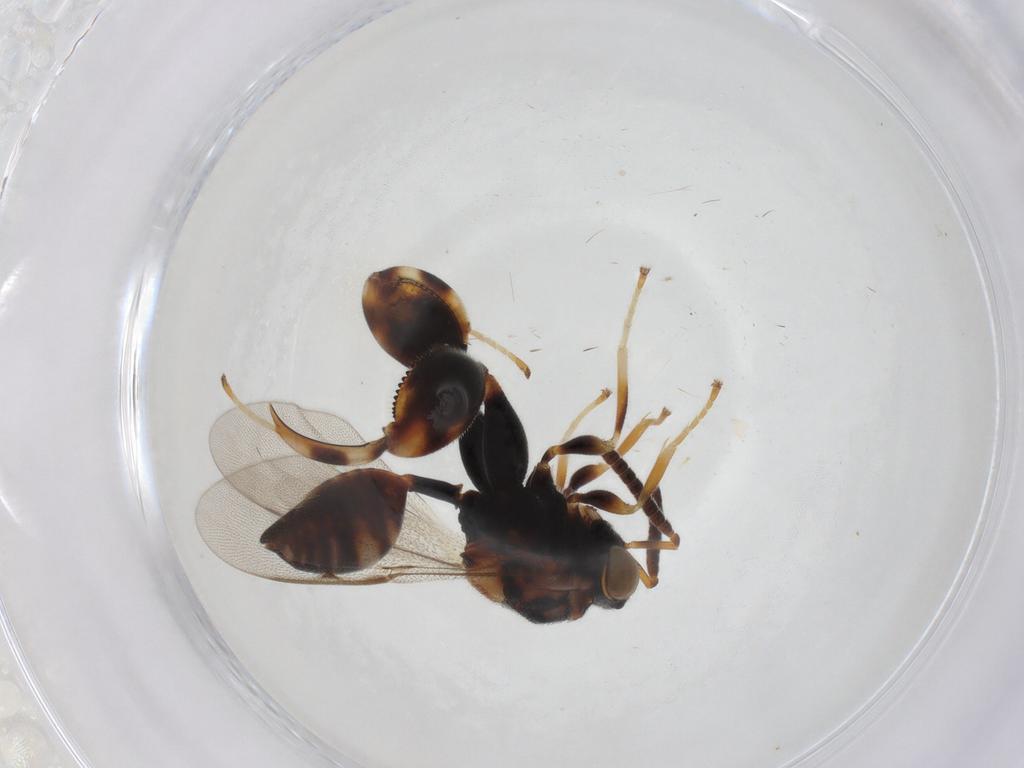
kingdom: Animalia
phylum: Arthropoda
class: Insecta
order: Hymenoptera
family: Chalcididae
